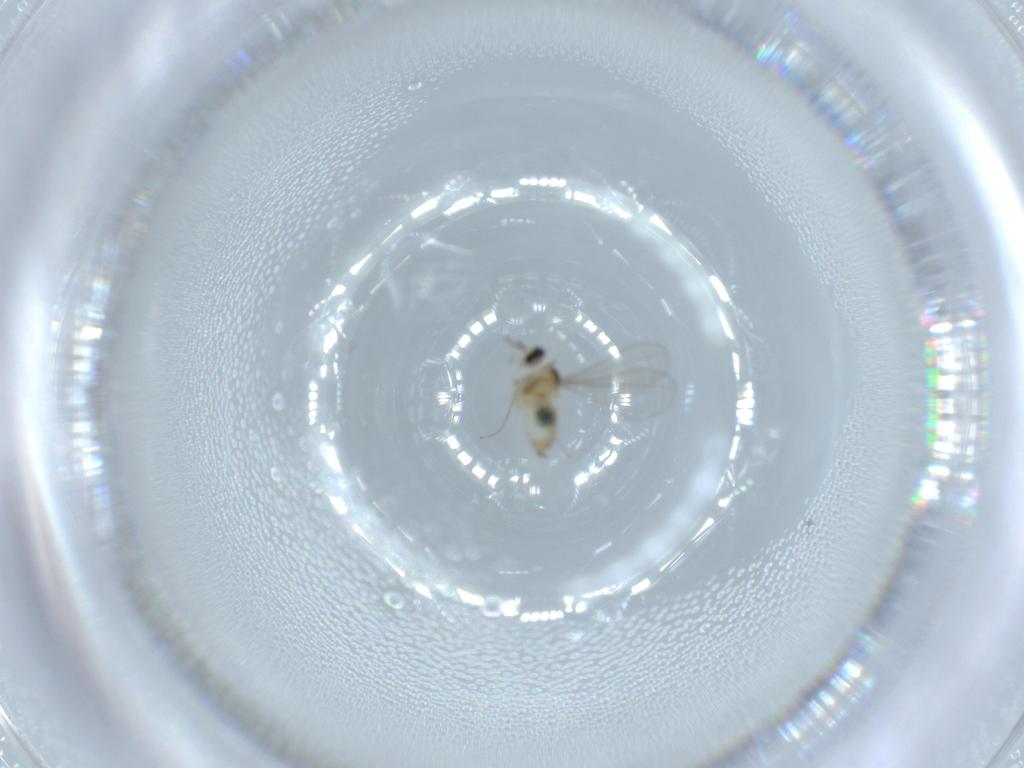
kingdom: Animalia
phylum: Arthropoda
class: Insecta
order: Diptera
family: Cecidomyiidae
